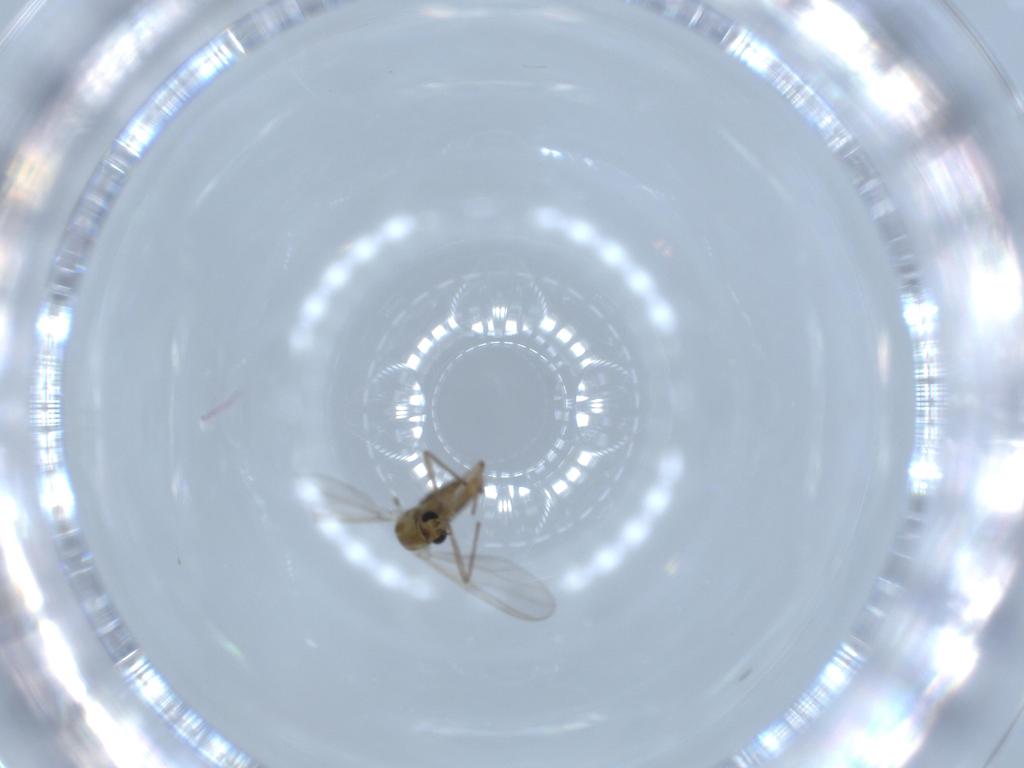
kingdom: Animalia
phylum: Arthropoda
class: Insecta
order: Diptera
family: Chironomidae
